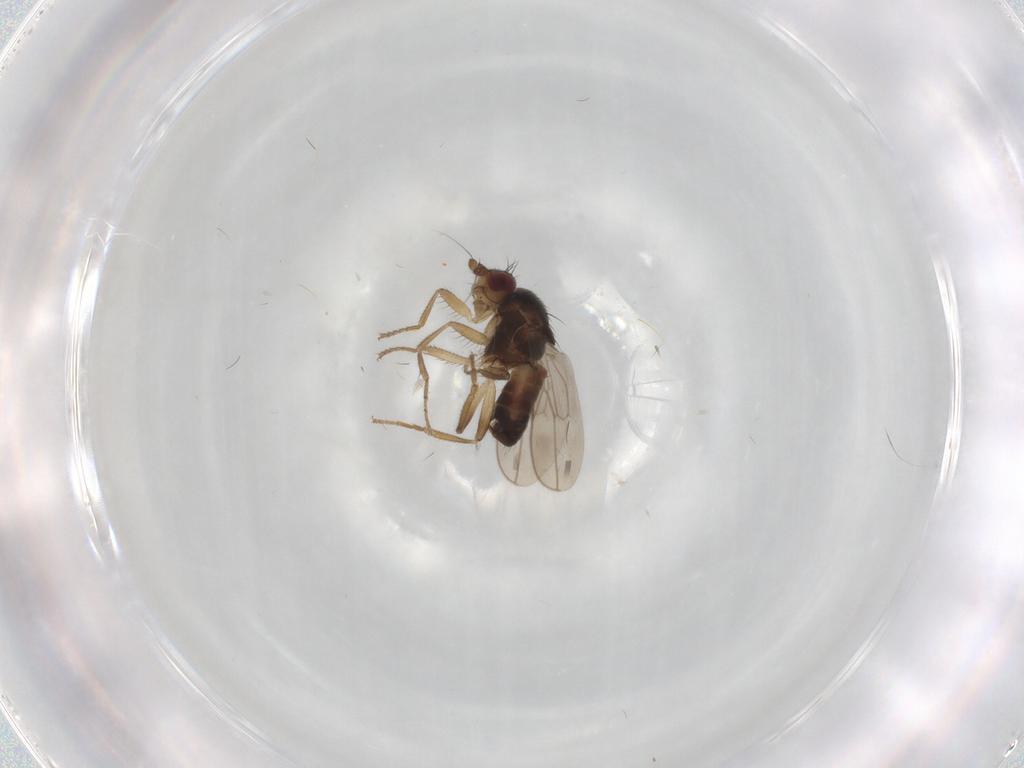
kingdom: Animalia
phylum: Arthropoda
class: Insecta
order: Diptera
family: Sphaeroceridae
